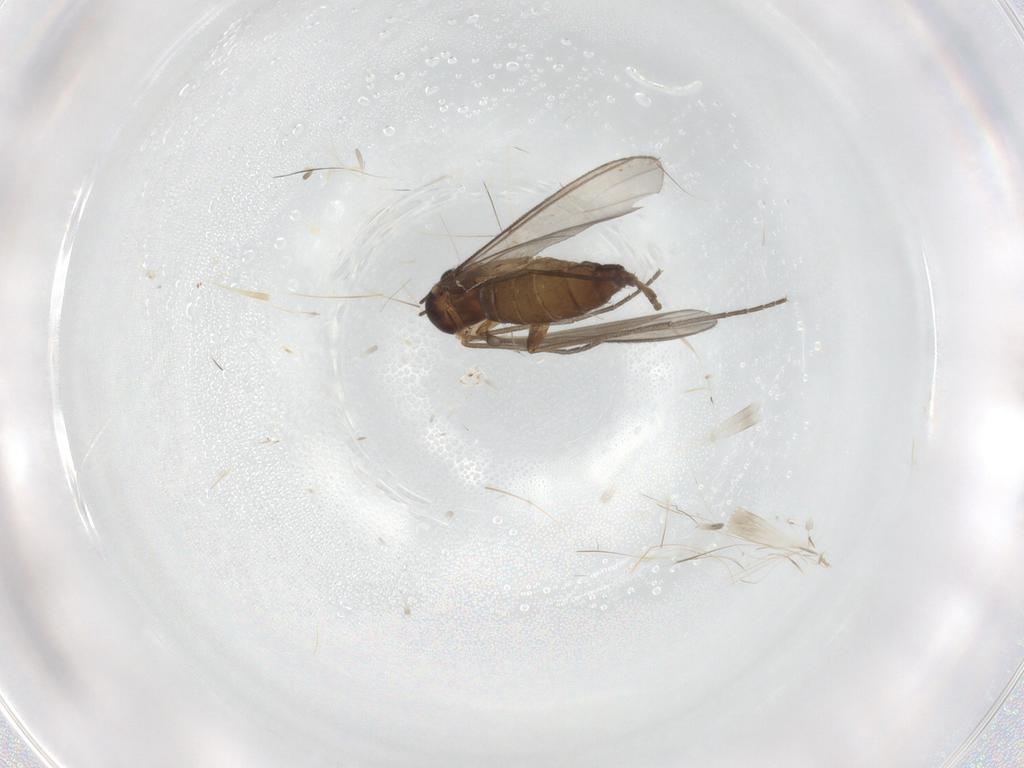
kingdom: Animalia
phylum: Arthropoda
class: Insecta
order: Diptera
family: Sciaridae
